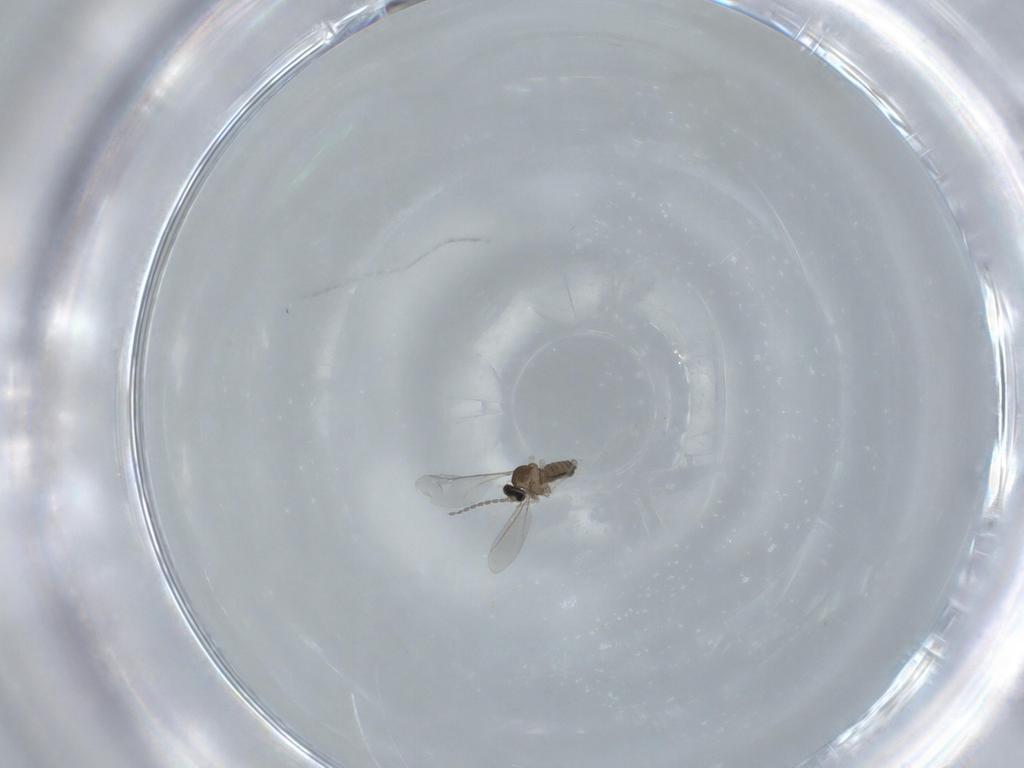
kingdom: Animalia
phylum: Arthropoda
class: Insecta
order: Diptera
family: Cecidomyiidae
